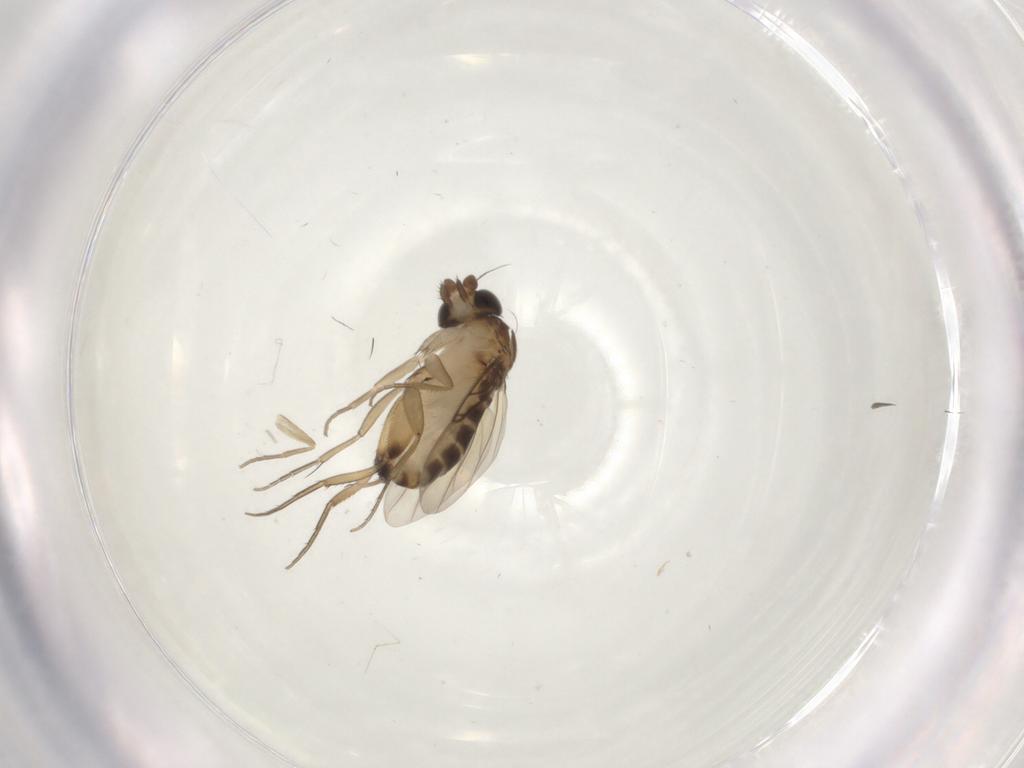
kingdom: Animalia
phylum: Arthropoda
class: Insecta
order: Diptera
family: Phoridae
